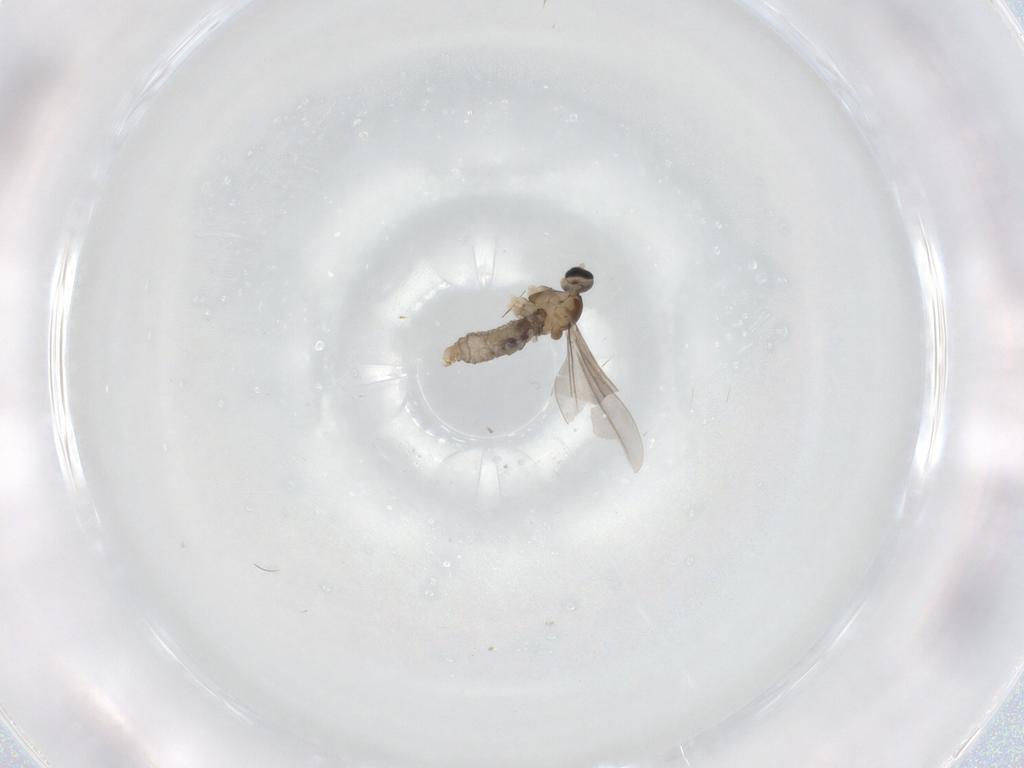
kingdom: Animalia
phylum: Arthropoda
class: Insecta
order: Diptera
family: Cecidomyiidae
